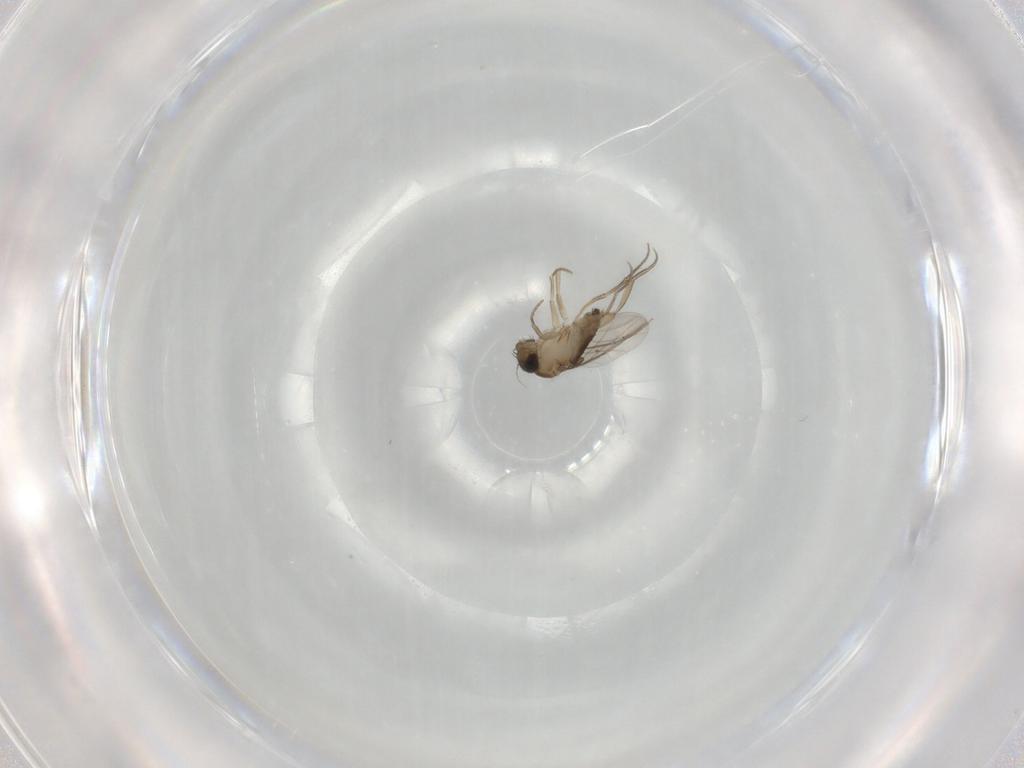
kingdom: Animalia
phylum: Arthropoda
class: Insecta
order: Diptera
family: Phoridae
